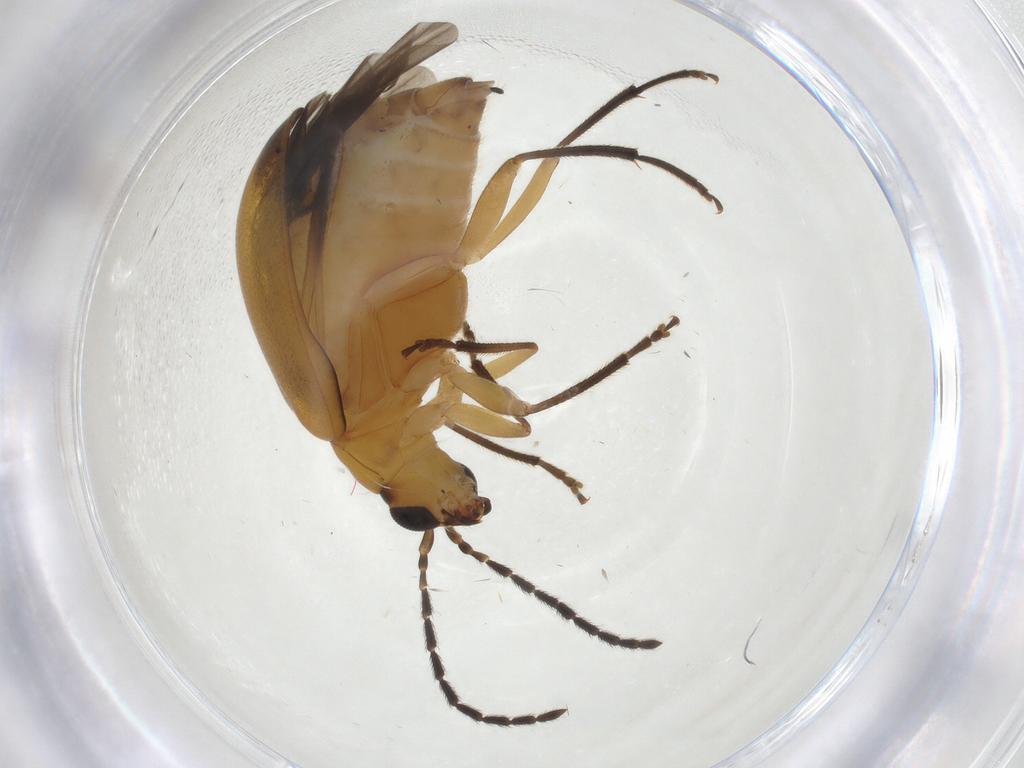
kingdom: Animalia
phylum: Arthropoda
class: Insecta
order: Coleoptera
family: Chrysomelidae
